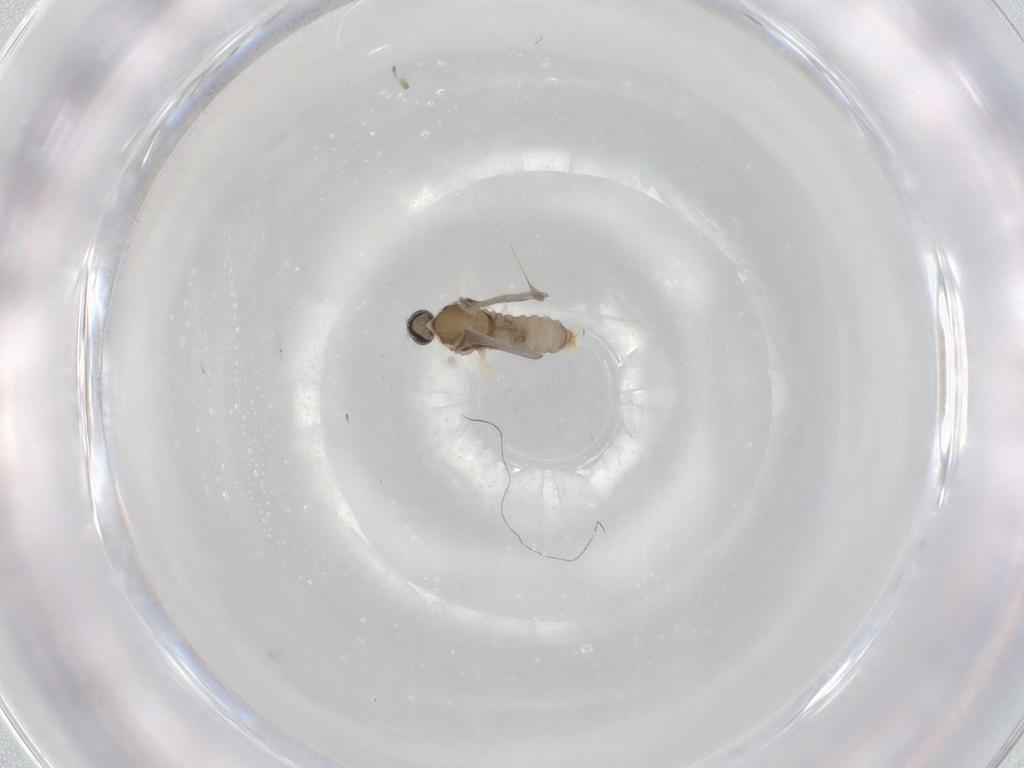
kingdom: Animalia
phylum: Arthropoda
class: Insecta
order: Diptera
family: Cecidomyiidae
